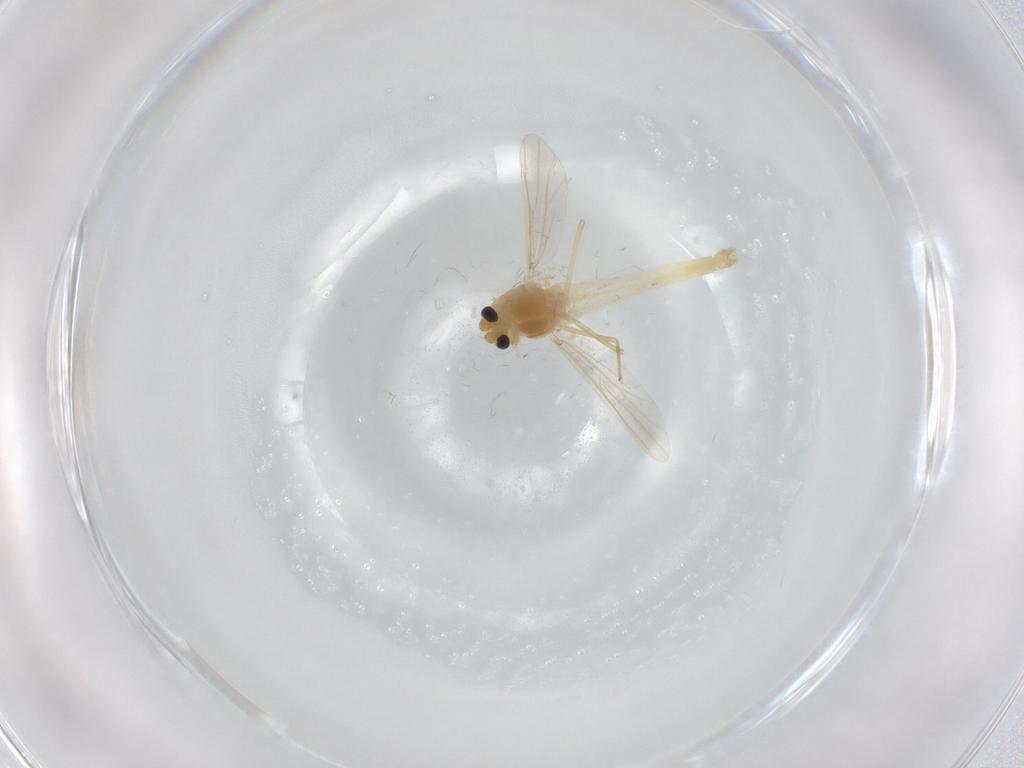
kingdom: Animalia
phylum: Arthropoda
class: Insecta
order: Diptera
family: Chironomidae
